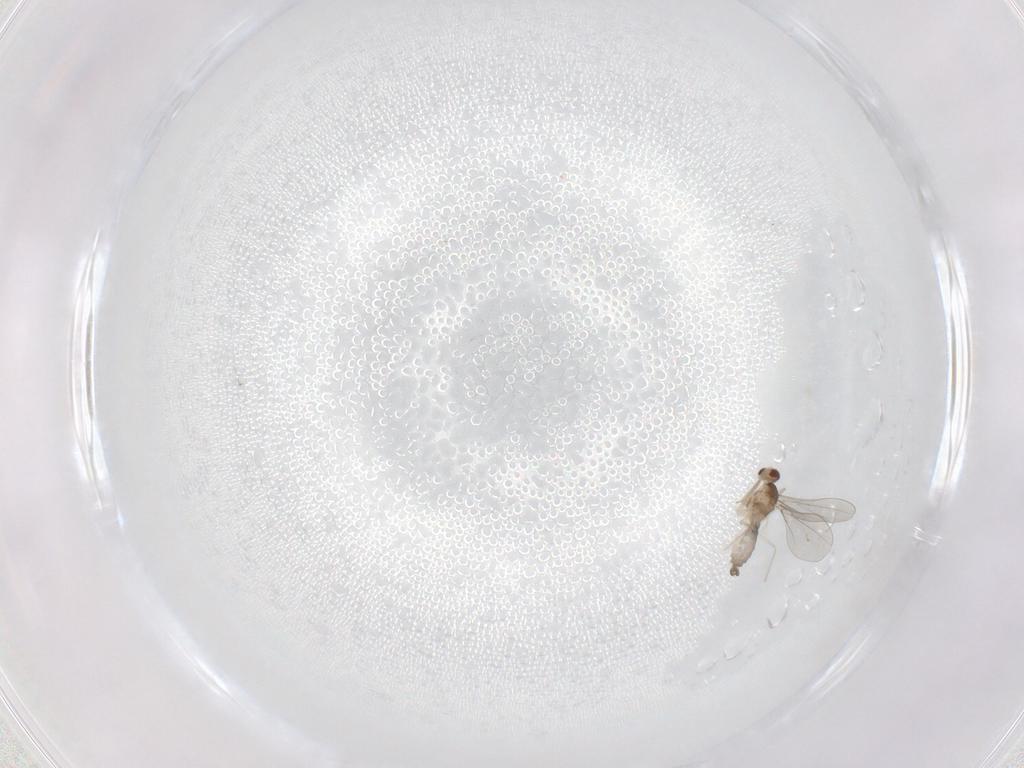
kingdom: Animalia
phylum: Arthropoda
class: Insecta
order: Diptera
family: Cecidomyiidae
